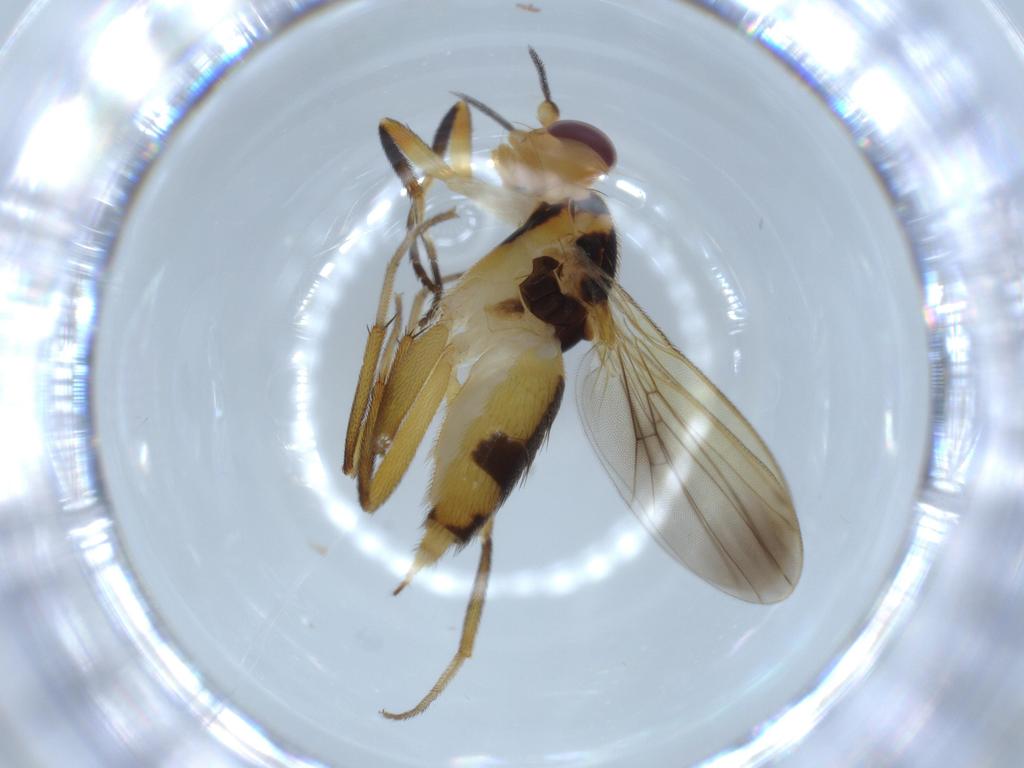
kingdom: Animalia
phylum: Arthropoda
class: Insecta
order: Diptera
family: Clusiidae
